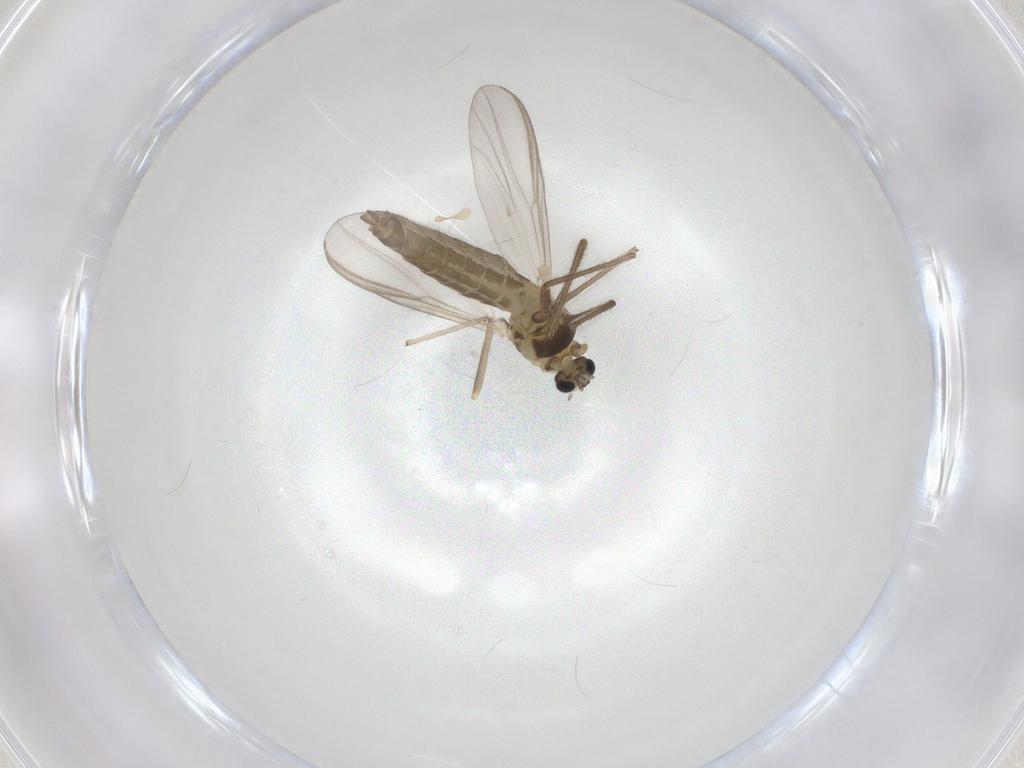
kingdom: Animalia
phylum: Arthropoda
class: Insecta
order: Diptera
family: Chironomidae
